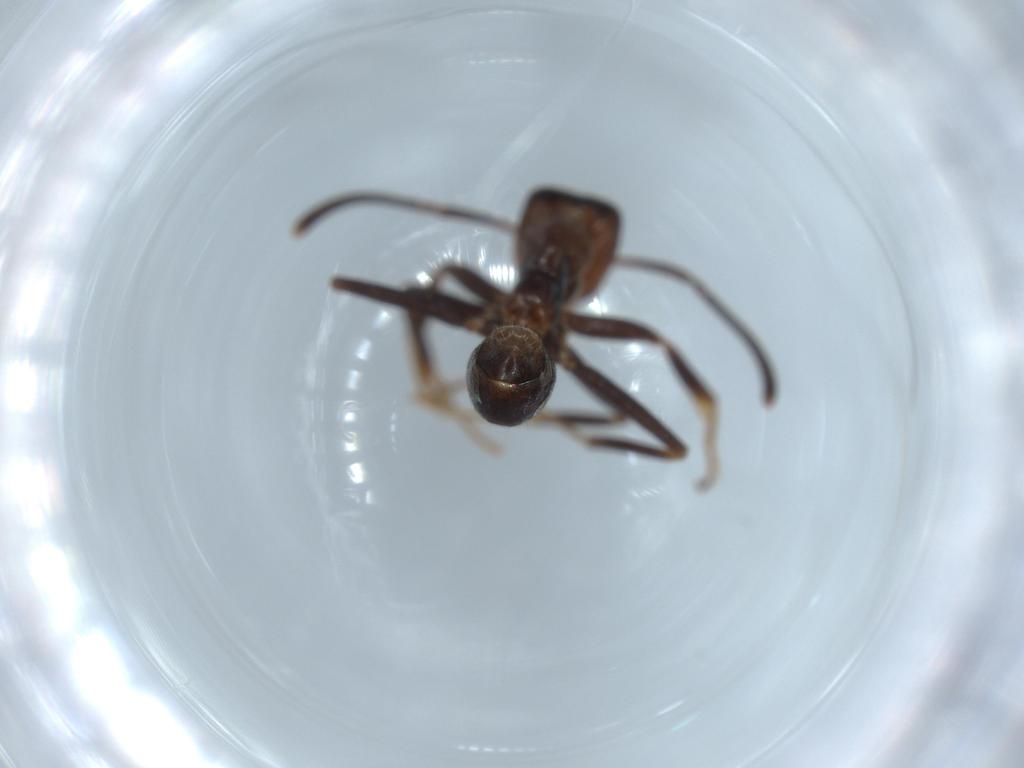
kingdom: Animalia
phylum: Arthropoda
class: Insecta
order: Hymenoptera
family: Formicidae
